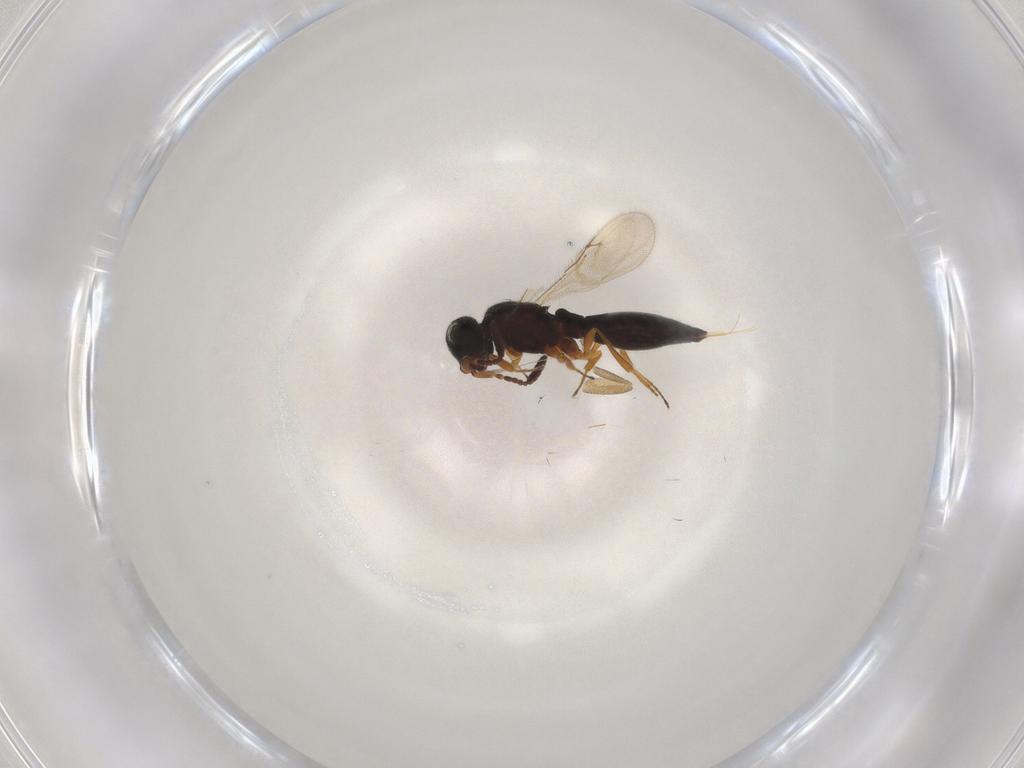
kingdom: Animalia
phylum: Arthropoda
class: Insecta
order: Hymenoptera
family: Scelionidae
